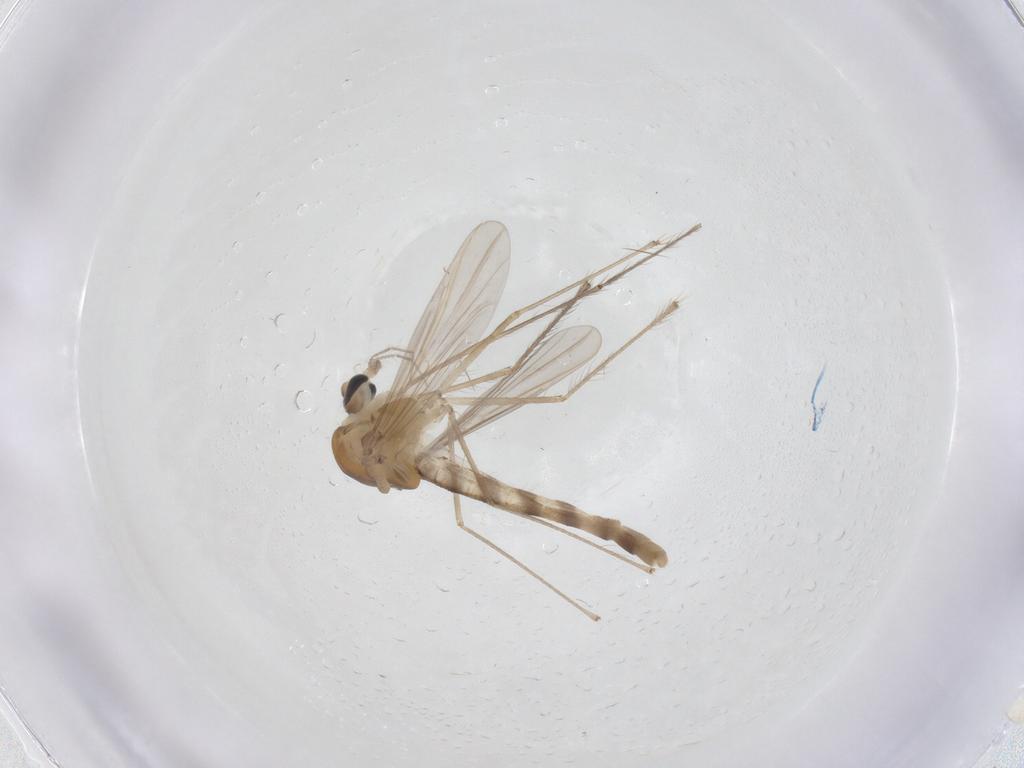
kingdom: Animalia
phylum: Arthropoda
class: Insecta
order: Diptera
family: Chironomidae
